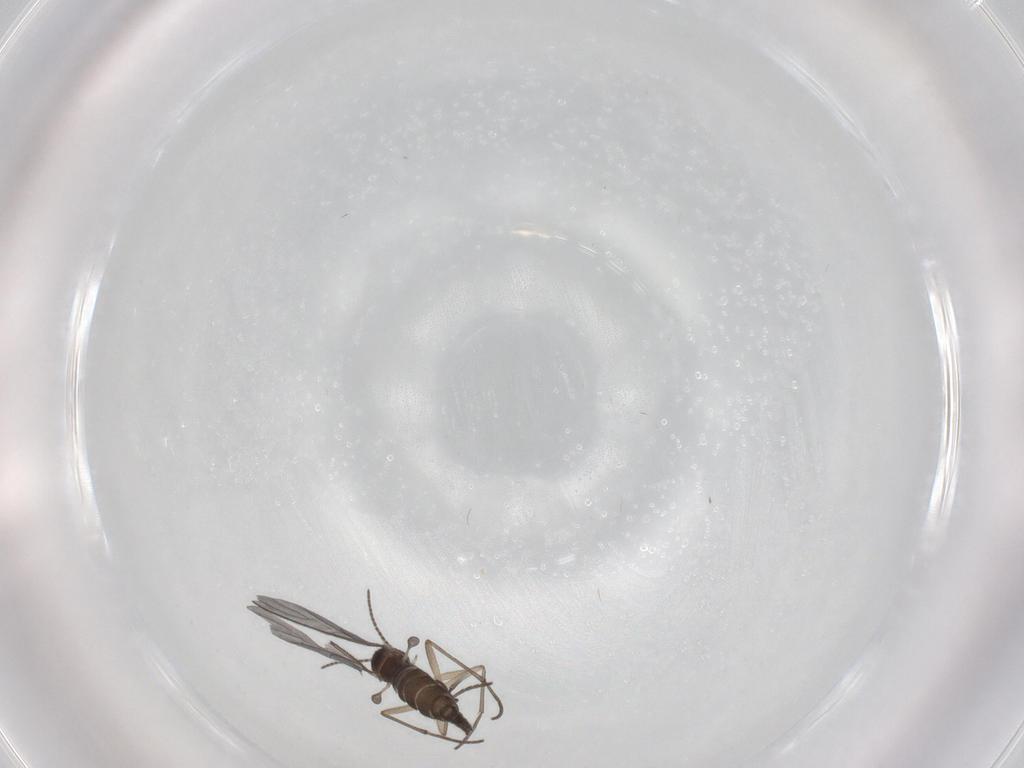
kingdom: Animalia
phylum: Arthropoda
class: Insecta
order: Diptera
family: Sciaridae
